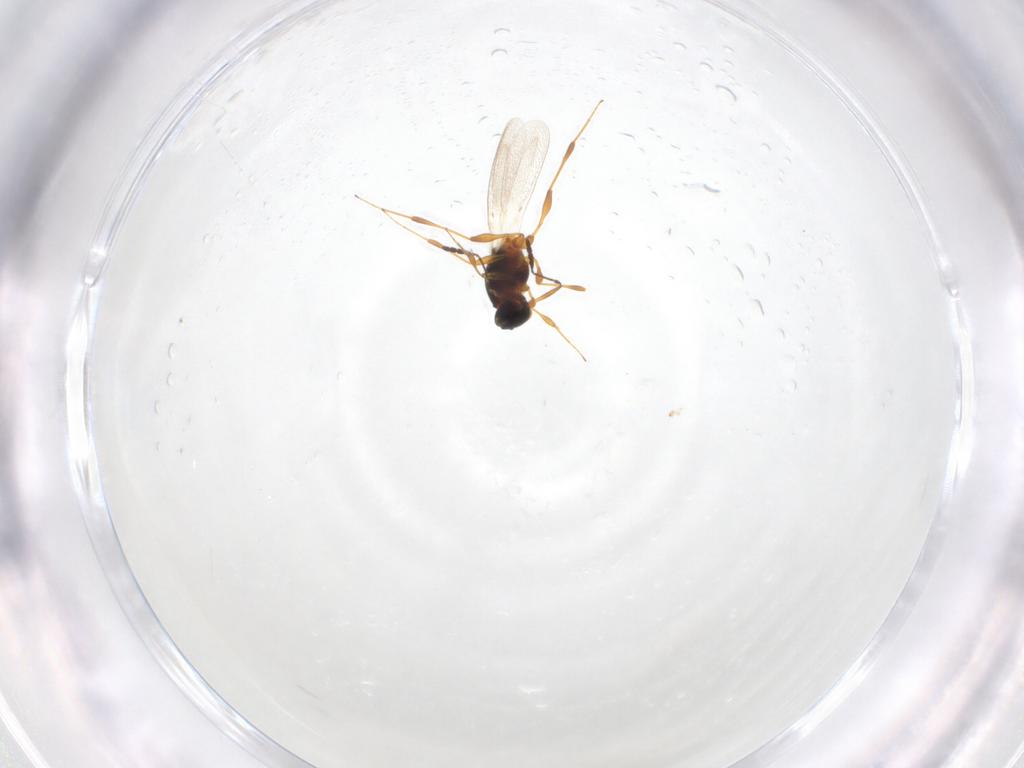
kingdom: Animalia
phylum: Arthropoda
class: Insecta
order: Hymenoptera
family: Platygastridae
